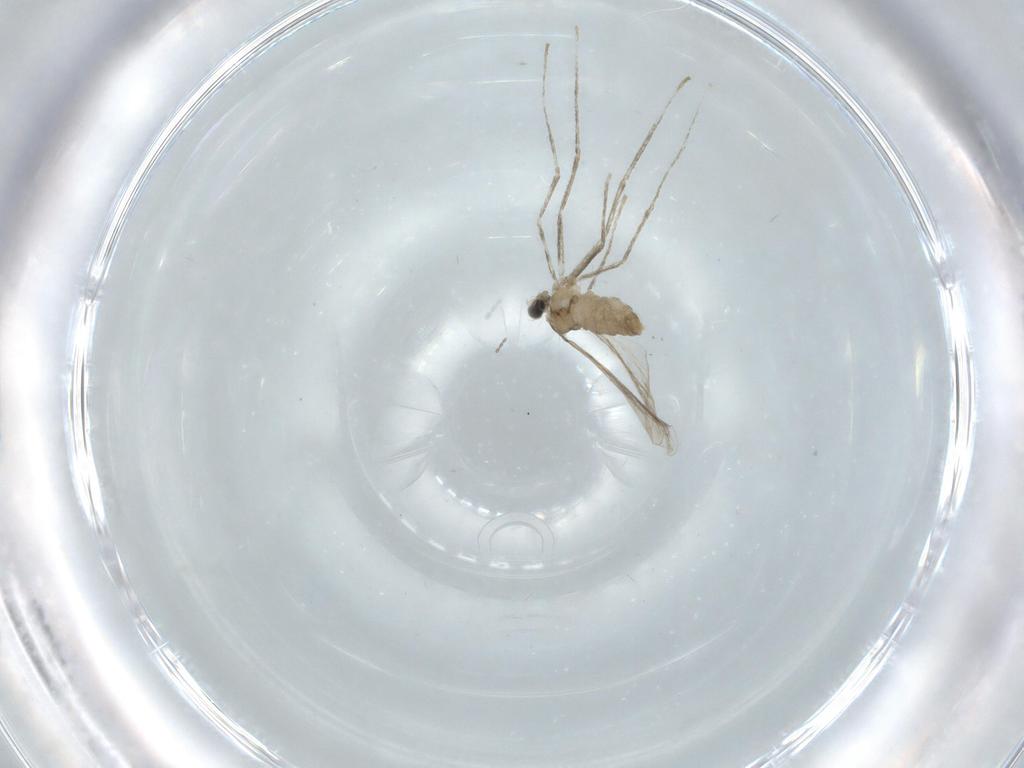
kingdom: Animalia
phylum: Arthropoda
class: Insecta
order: Diptera
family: Cecidomyiidae
